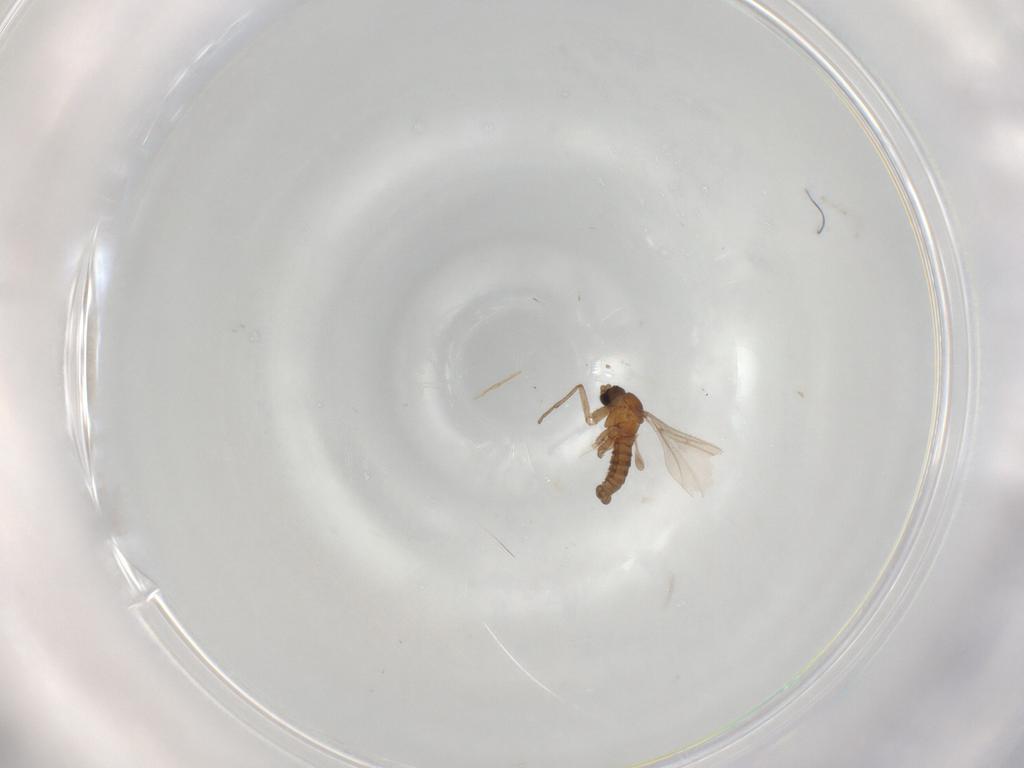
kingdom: Animalia
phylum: Arthropoda
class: Insecta
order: Diptera
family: Ceratopogonidae
